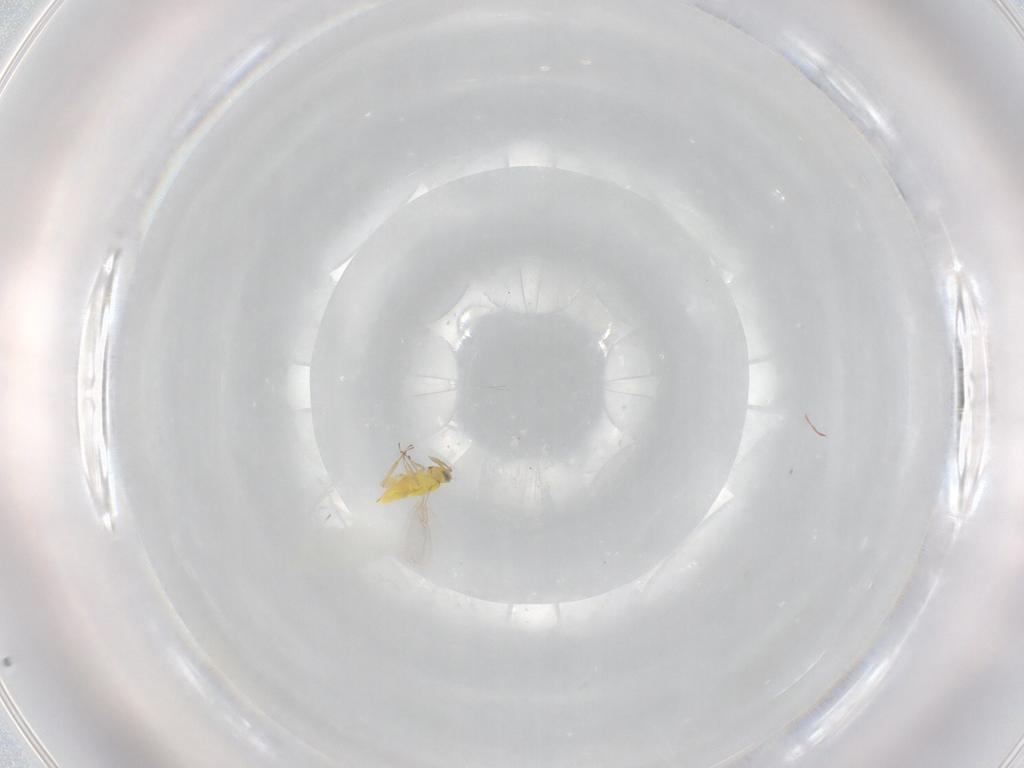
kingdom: Animalia
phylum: Arthropoda
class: Insecta
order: Hymenoptera
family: Aphelinidae
